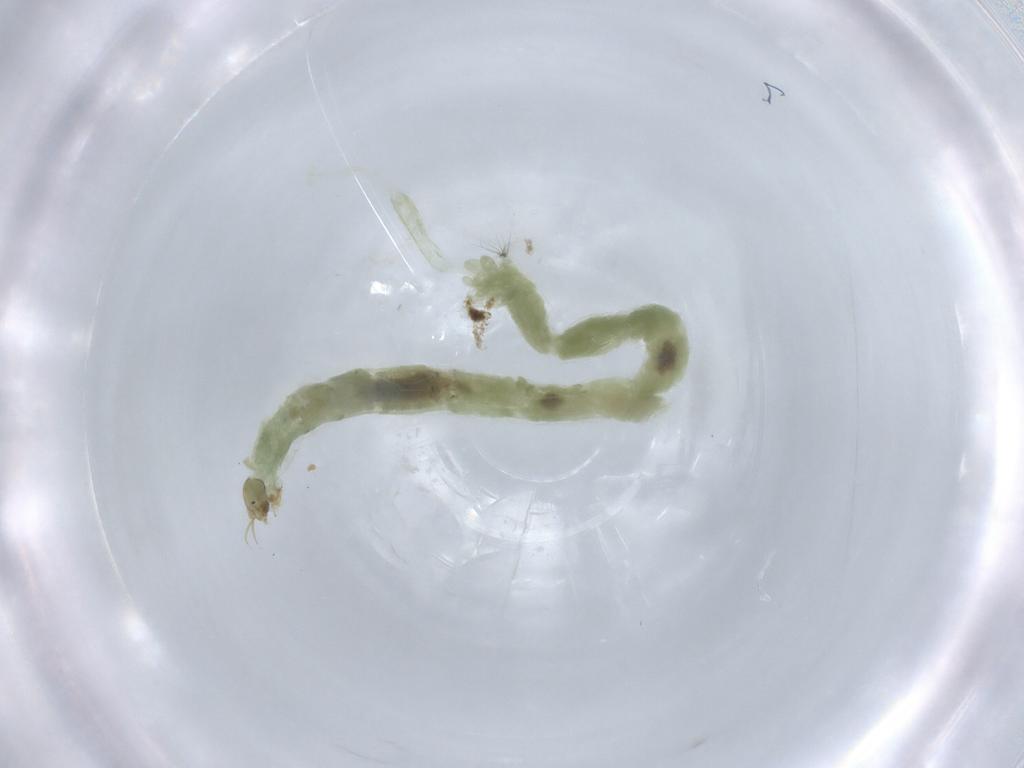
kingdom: Animalia
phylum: Arthropoda
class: Insecta
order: Diptera
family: Chironomidae
